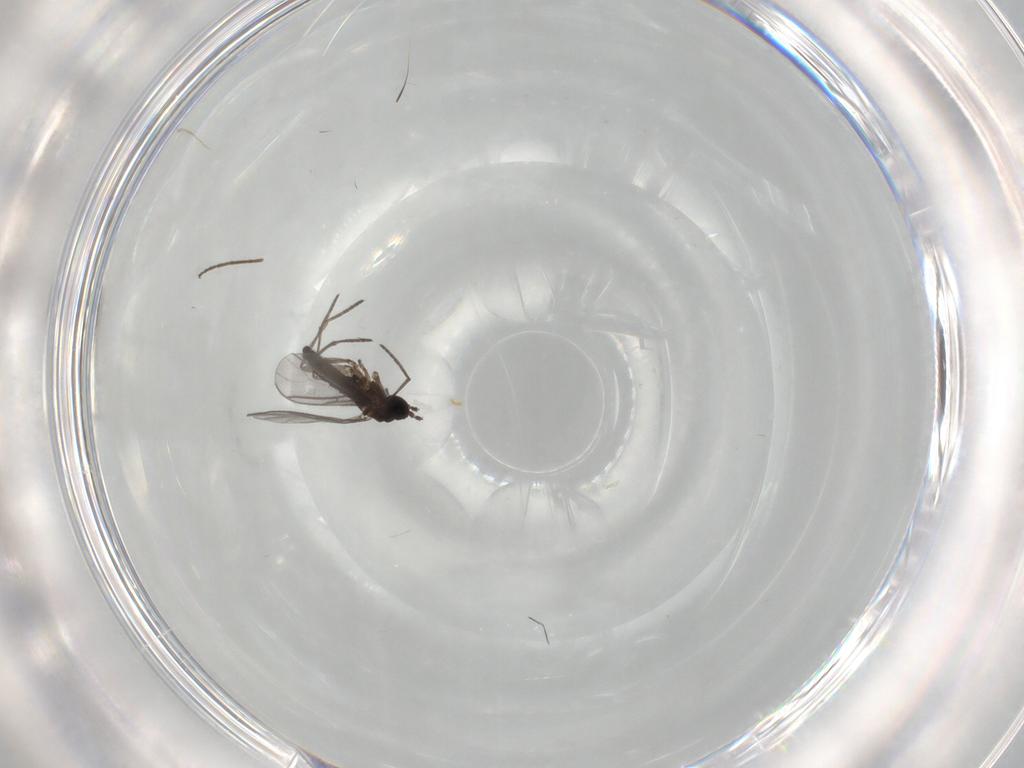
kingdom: Animalia
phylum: Arthropoda
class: Insecta
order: Diptera
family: Sciaridae
